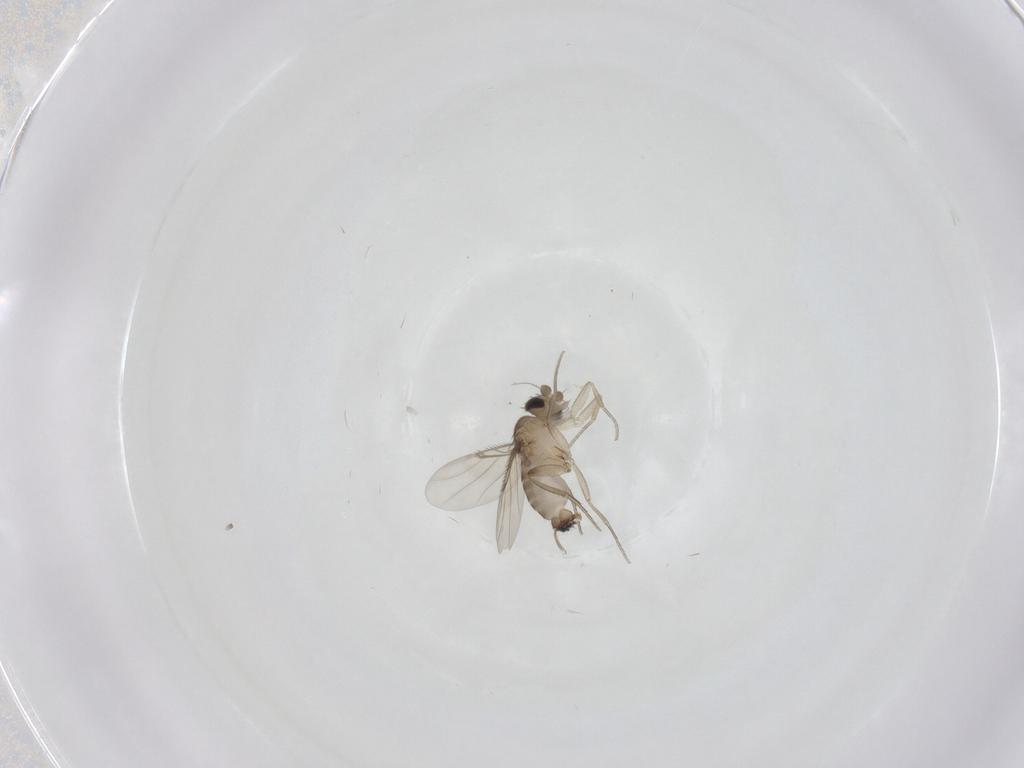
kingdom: Animalia
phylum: Arthropoda
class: Insecta
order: Diptera
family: Phoridae
